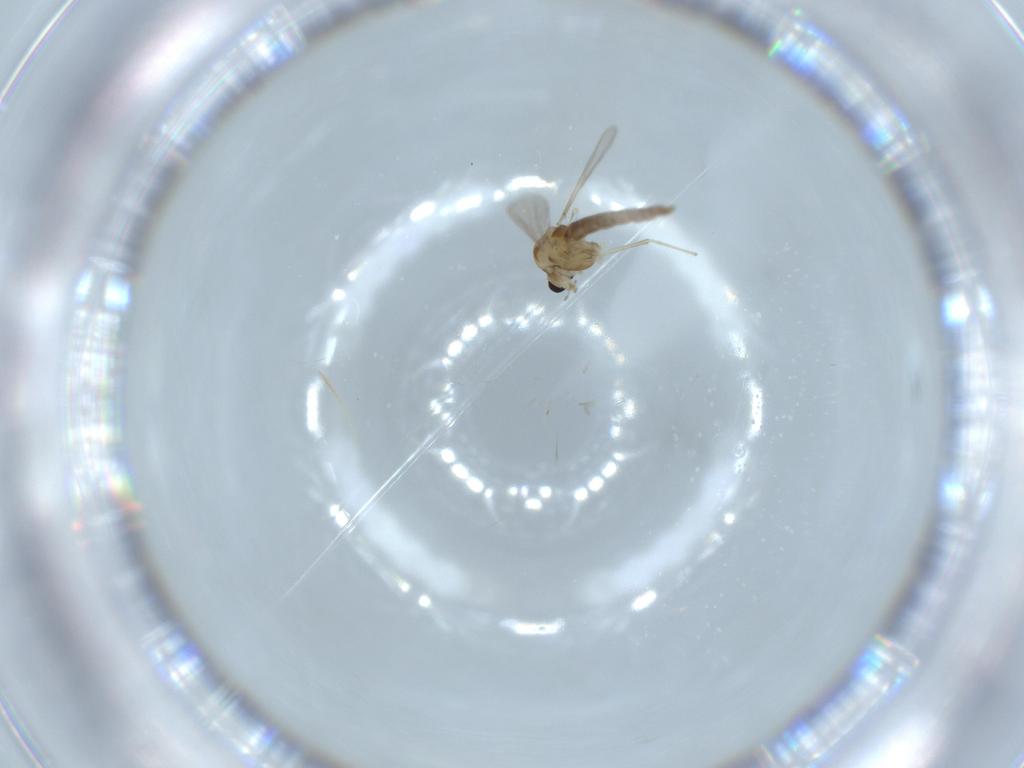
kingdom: Animalia
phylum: Arthropoda
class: Insecta
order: Diptera
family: Chironomidae
